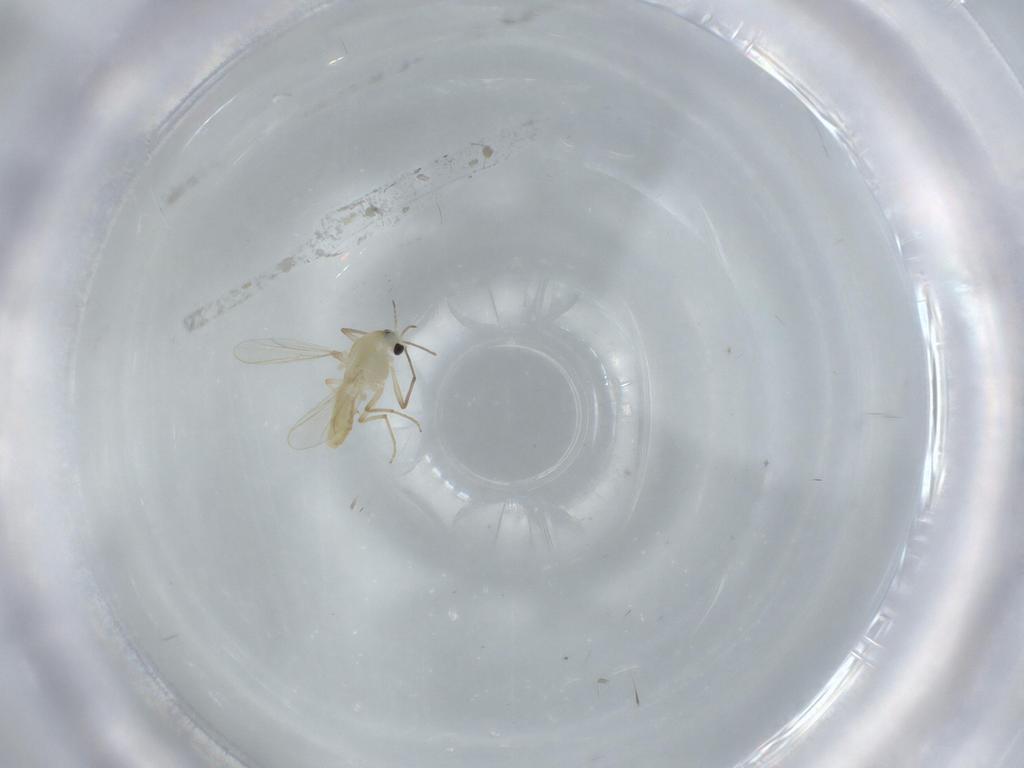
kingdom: Animalia
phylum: Arthropoda
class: Insecta
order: Diptera
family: Chironomidae
